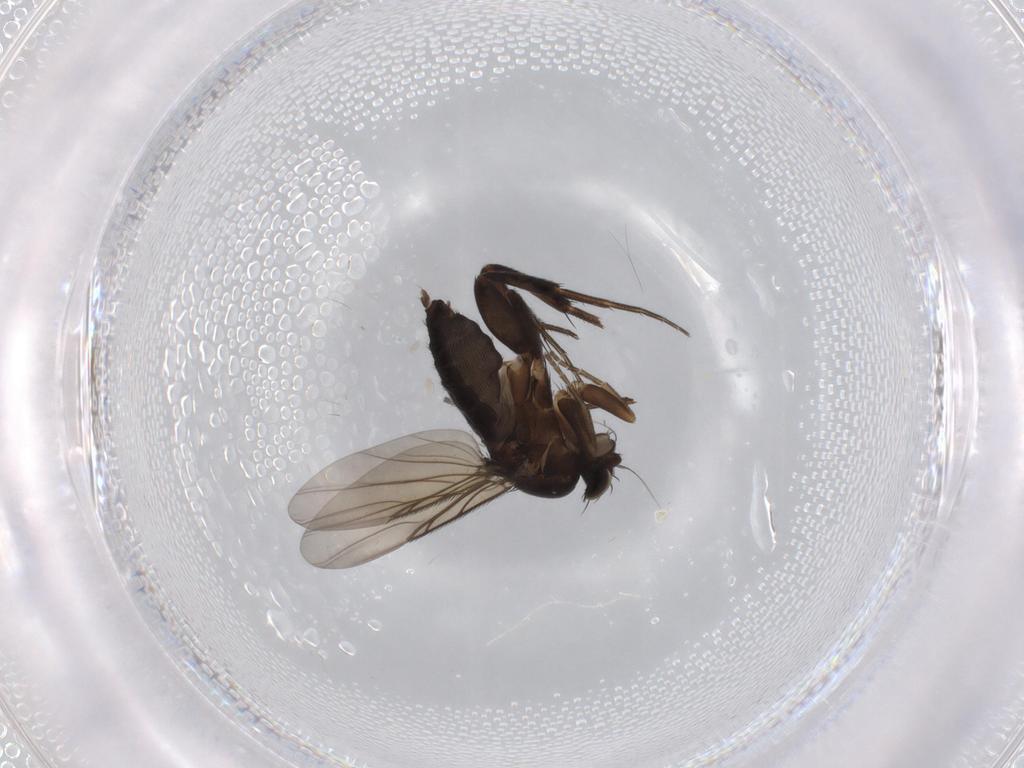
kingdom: Animalia
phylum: Arthropoda
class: Insecta
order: Diptera
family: Phoridae
